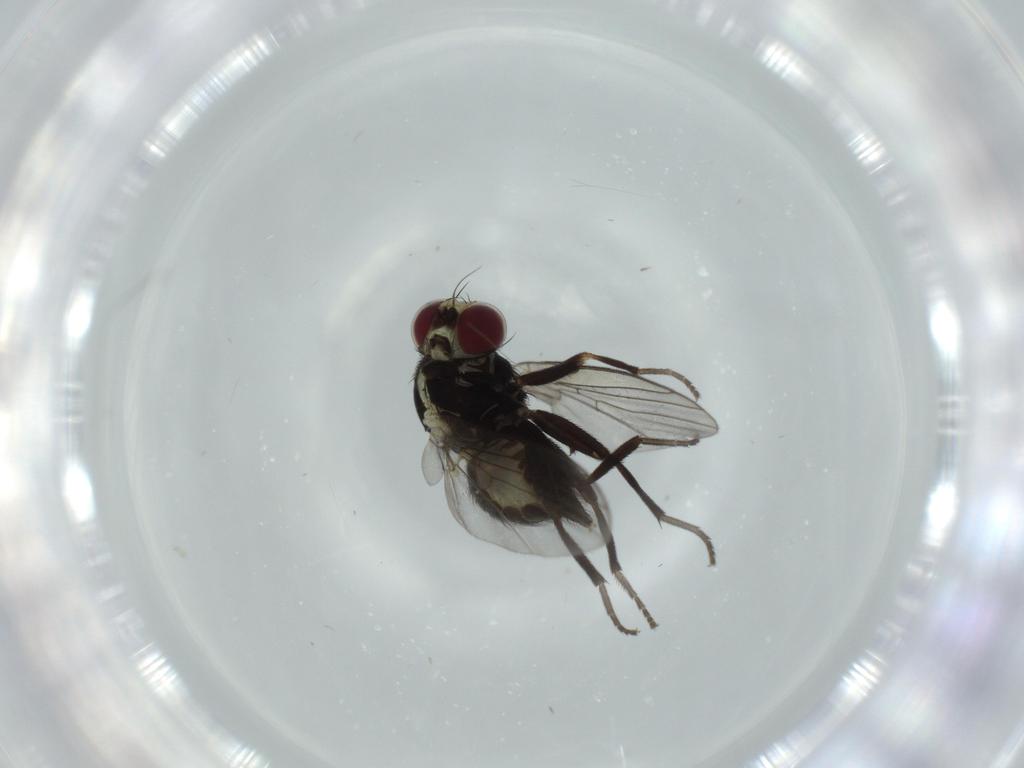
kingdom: Animalia
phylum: Arthropoda
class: Insecta
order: Diptera
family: Agromyzidae
